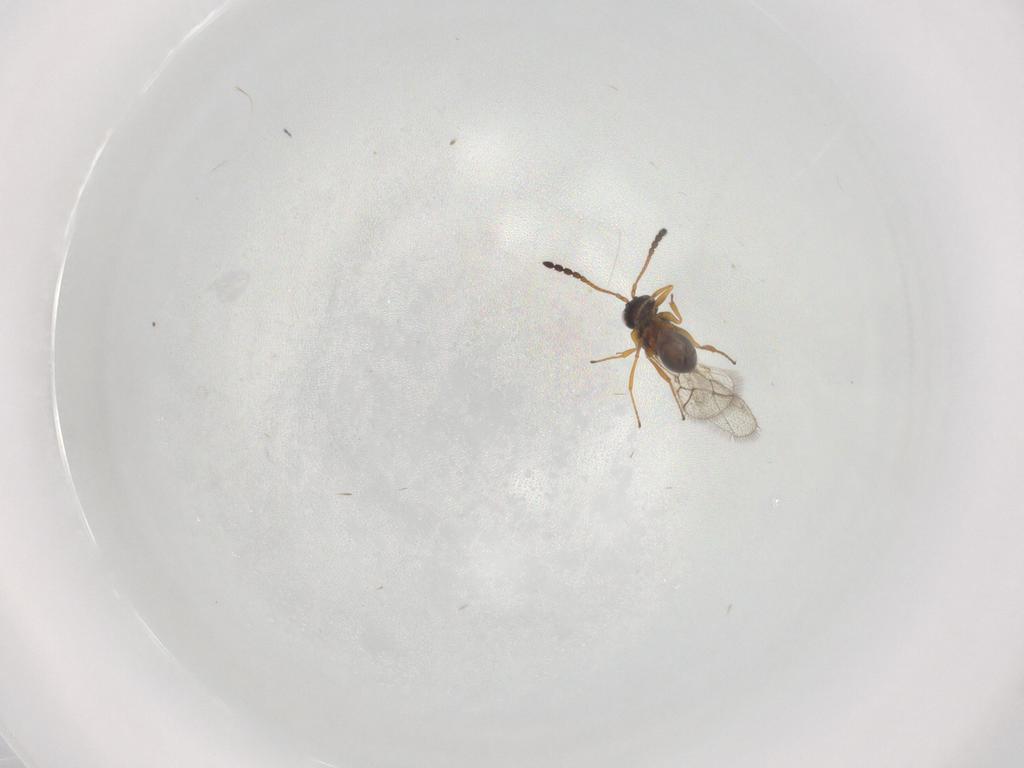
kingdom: Animalia
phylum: Arthropoda
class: Insecta
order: Hymenoptera
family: Figitidae
